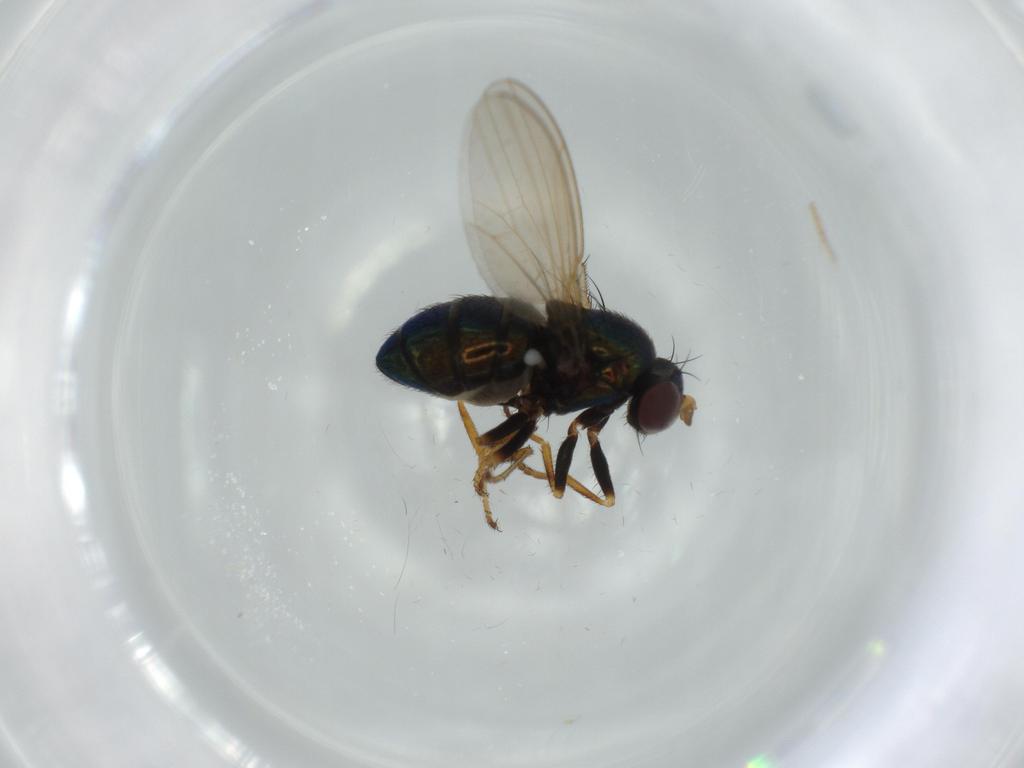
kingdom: Animalia
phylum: Arthropoda
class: Insecta
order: Diptera
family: Ephydridae
